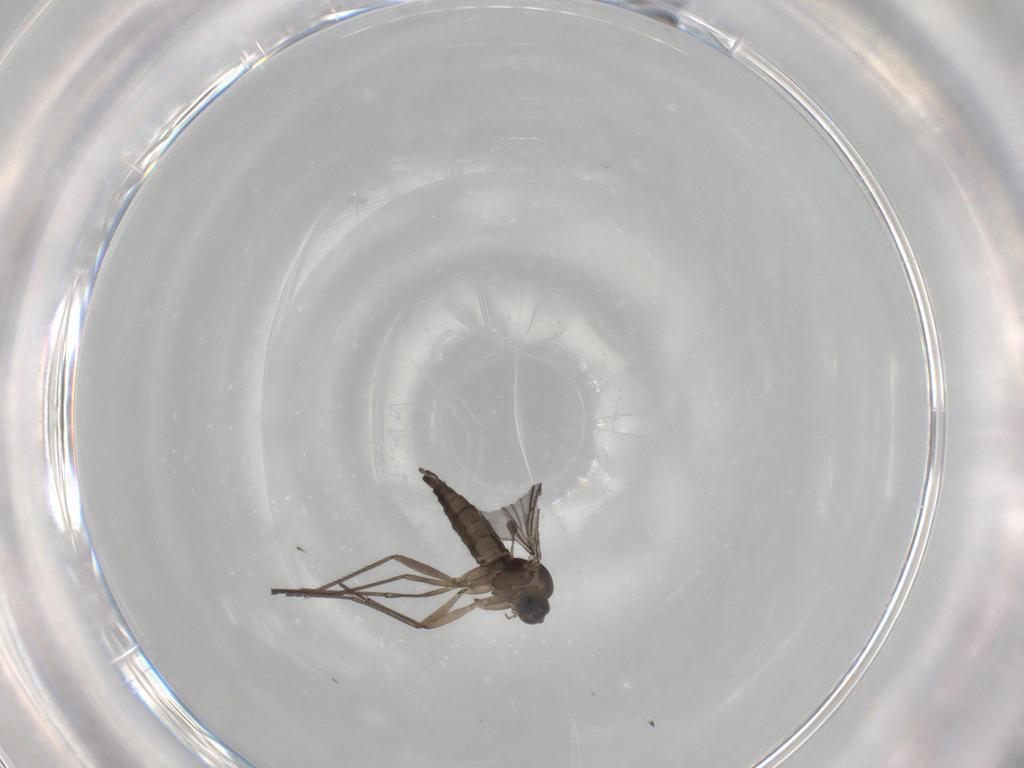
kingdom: Animalia
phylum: Arthropoda
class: Insecta
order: Diptera
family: Sciaridae
